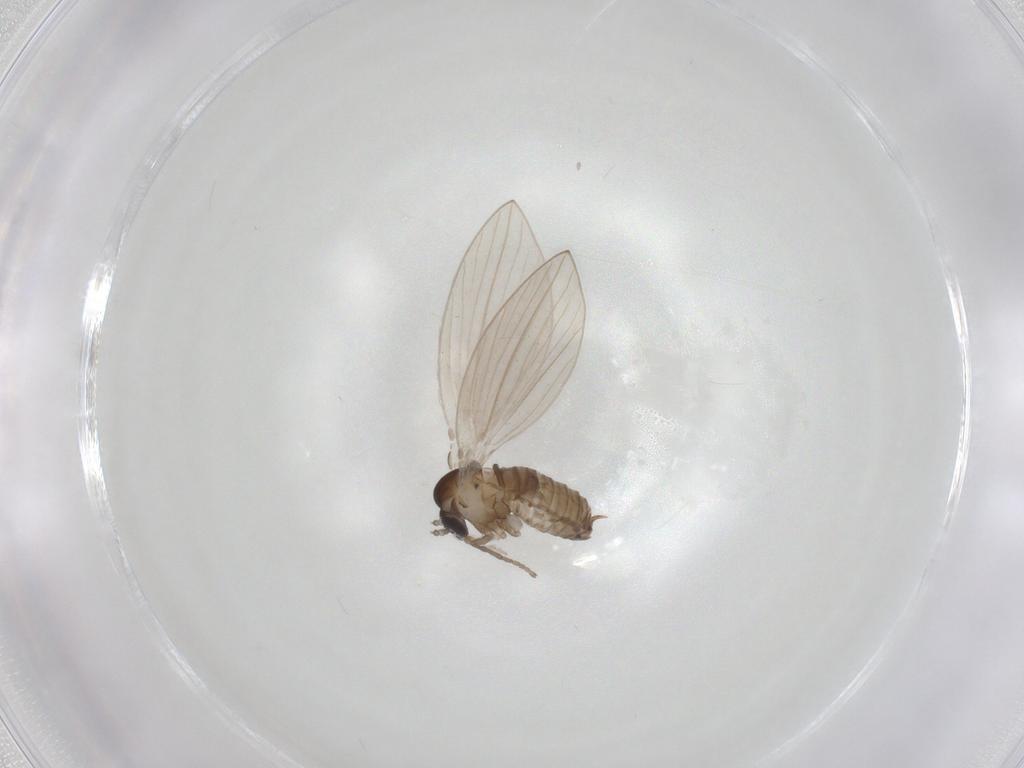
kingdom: Animalia
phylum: Arthropoda
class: Insecta
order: Diptera
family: Psychodidae
